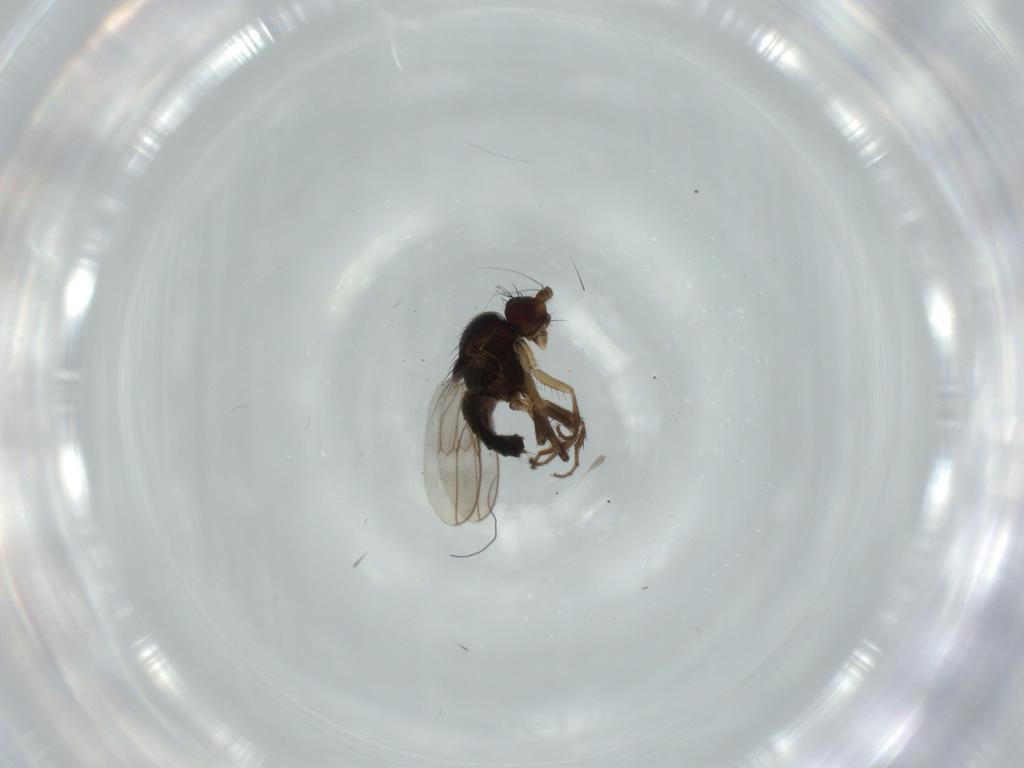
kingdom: Animalia
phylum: Arthropoda
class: Insecta
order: Diptera
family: Sphaeroceridae
